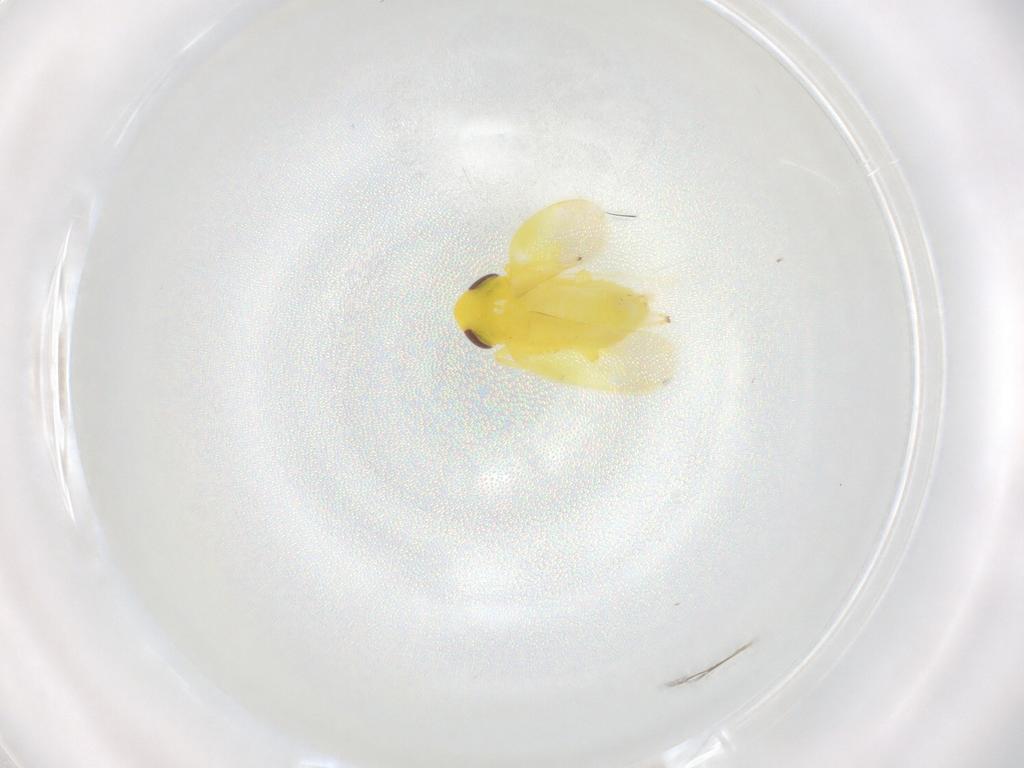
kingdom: Animalia
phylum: Arthropoda
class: Insecta
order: Hemiptera
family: Cicadellidae
